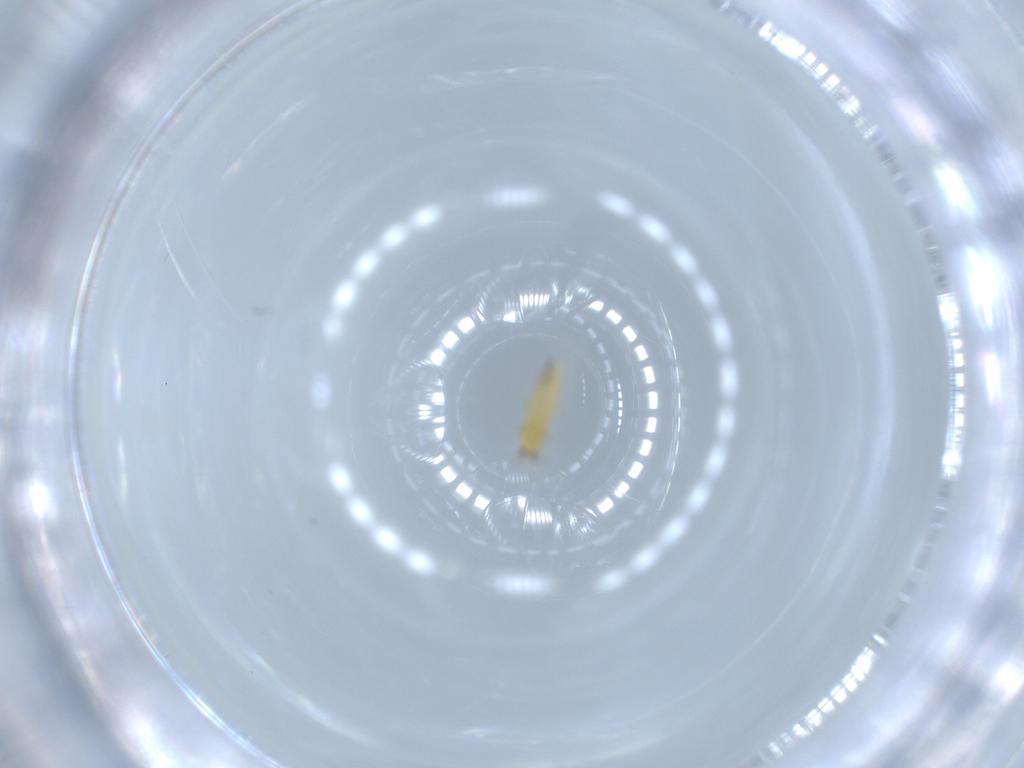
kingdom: Animalia
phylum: Arthropoda
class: Insecta
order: Thysanoptera
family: Thripidae
